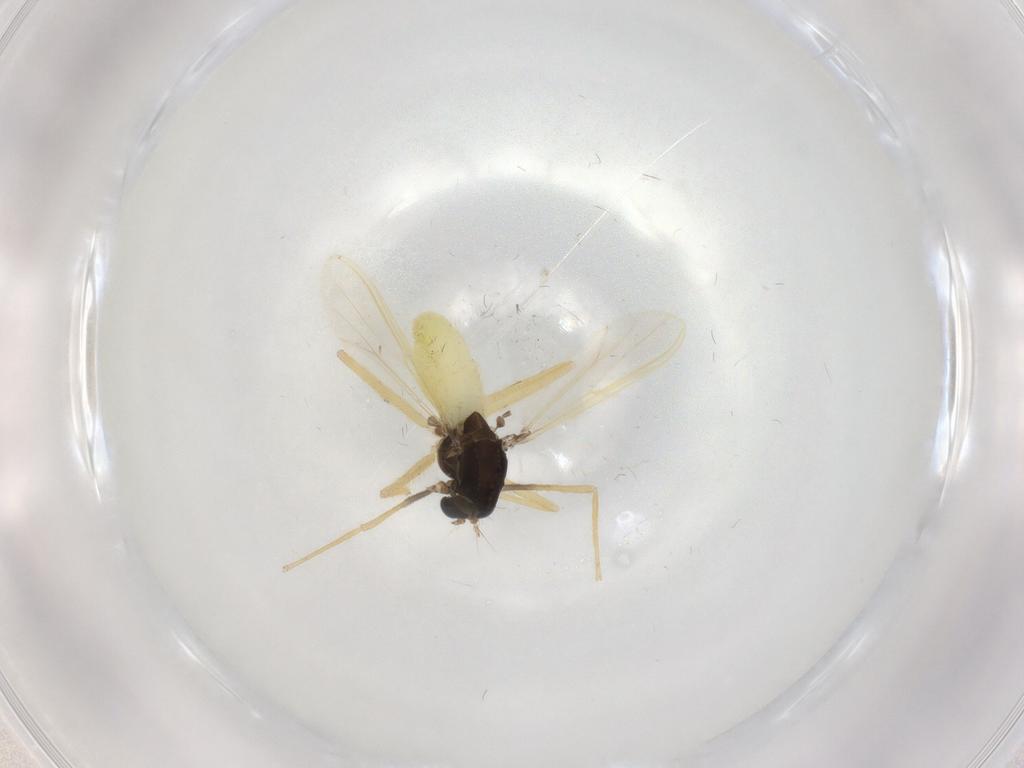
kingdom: Animalia
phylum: Arthropoda
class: Insecta
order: Diptera
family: Chironomidae
